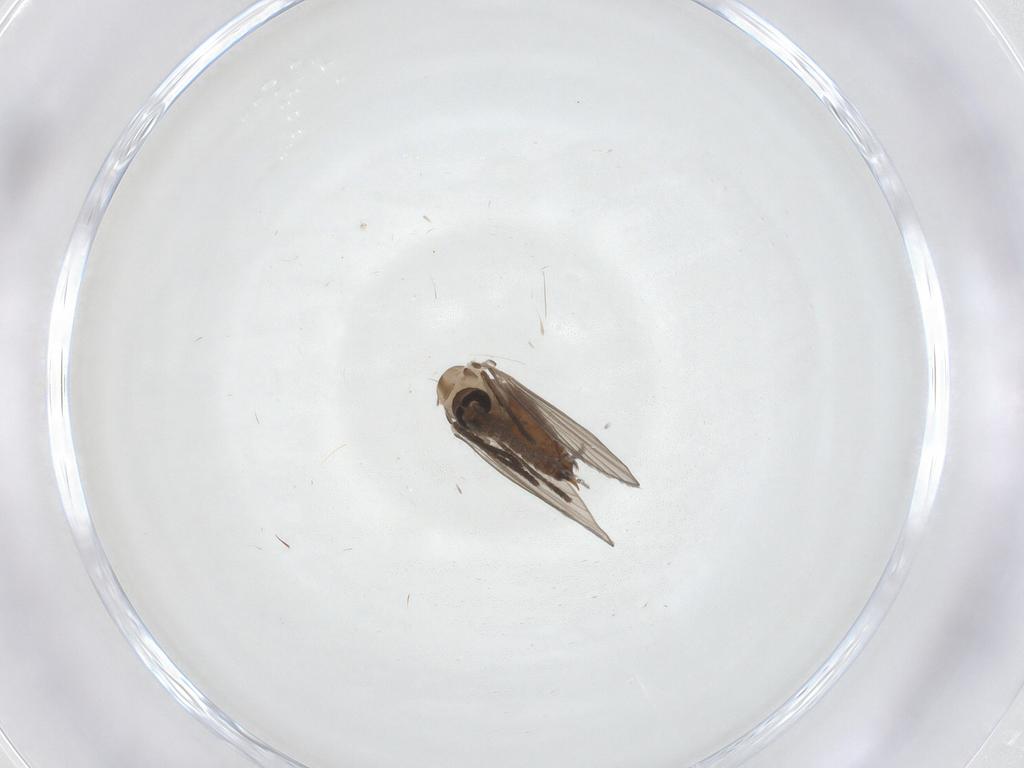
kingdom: Animalia
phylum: Arthropoda
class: Insecta
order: Diptera
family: Psychodidae
